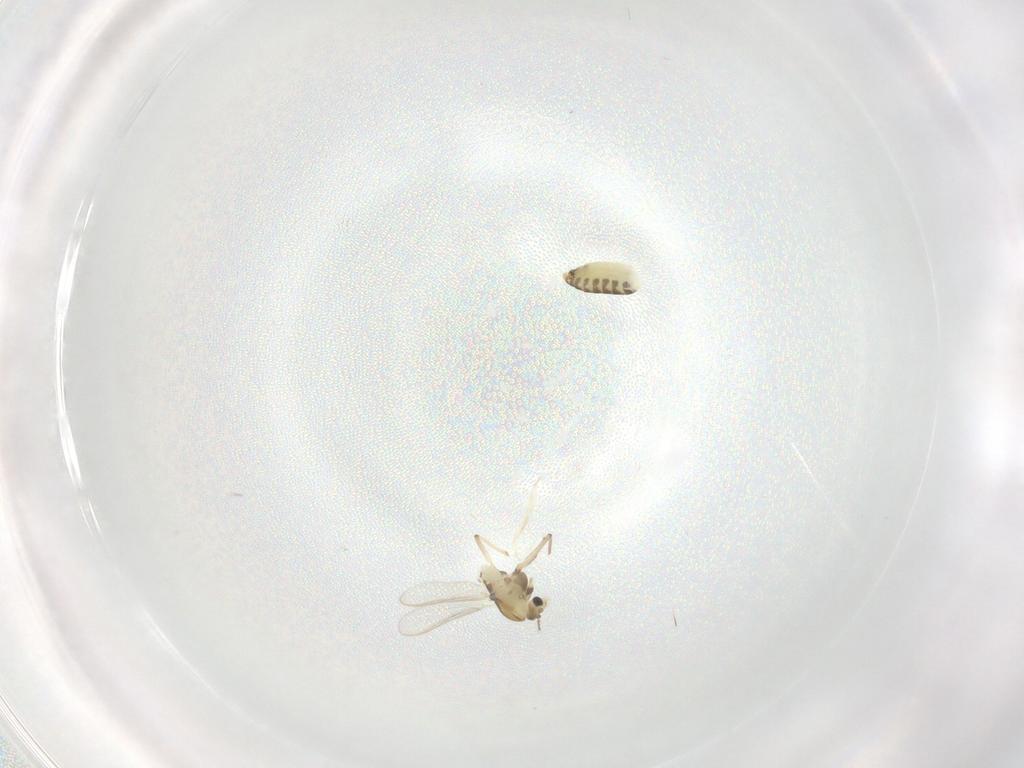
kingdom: Animalia
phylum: Arthropoda
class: Insecta
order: Diptera
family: Chironomidae
